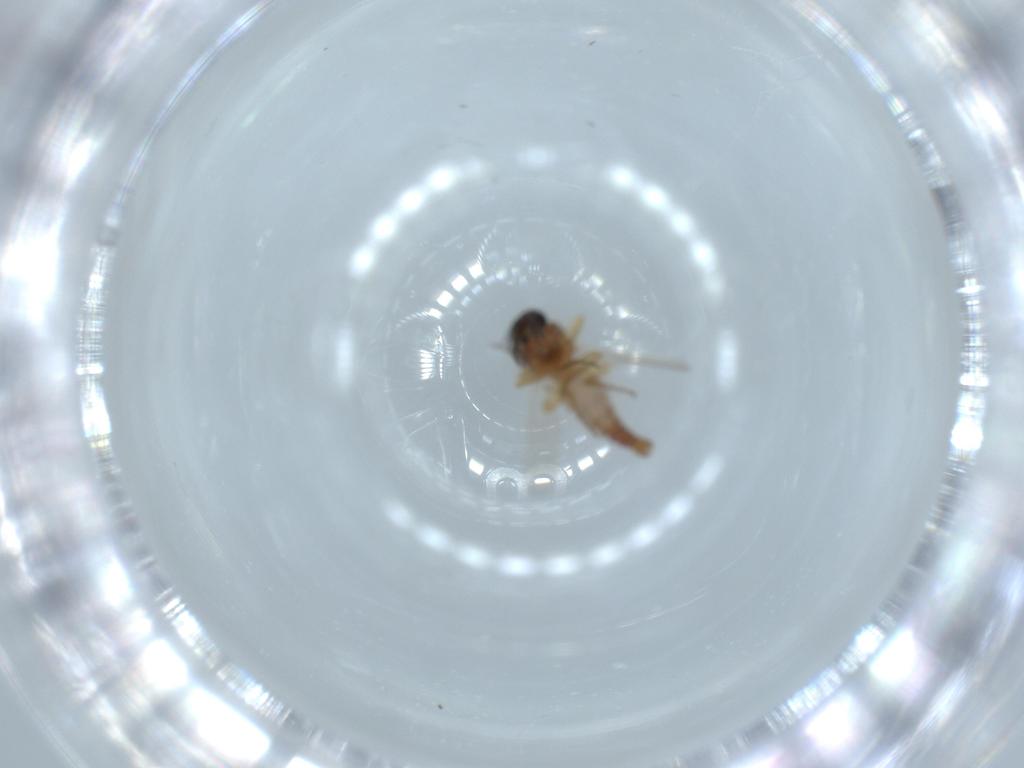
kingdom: Animalia
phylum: Arthropoda
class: Insecta
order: Diptera
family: Ceratopogonidae
